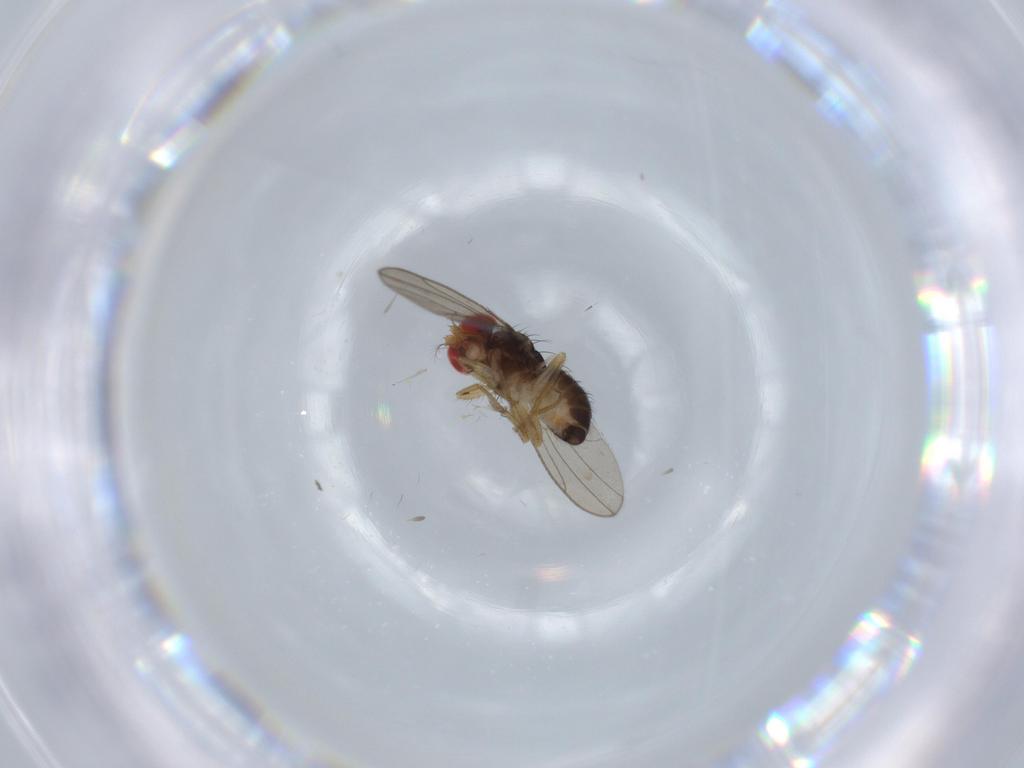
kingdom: Animalia
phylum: Arthropoda
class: Insecta
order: Diptera
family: Drosophilidae
